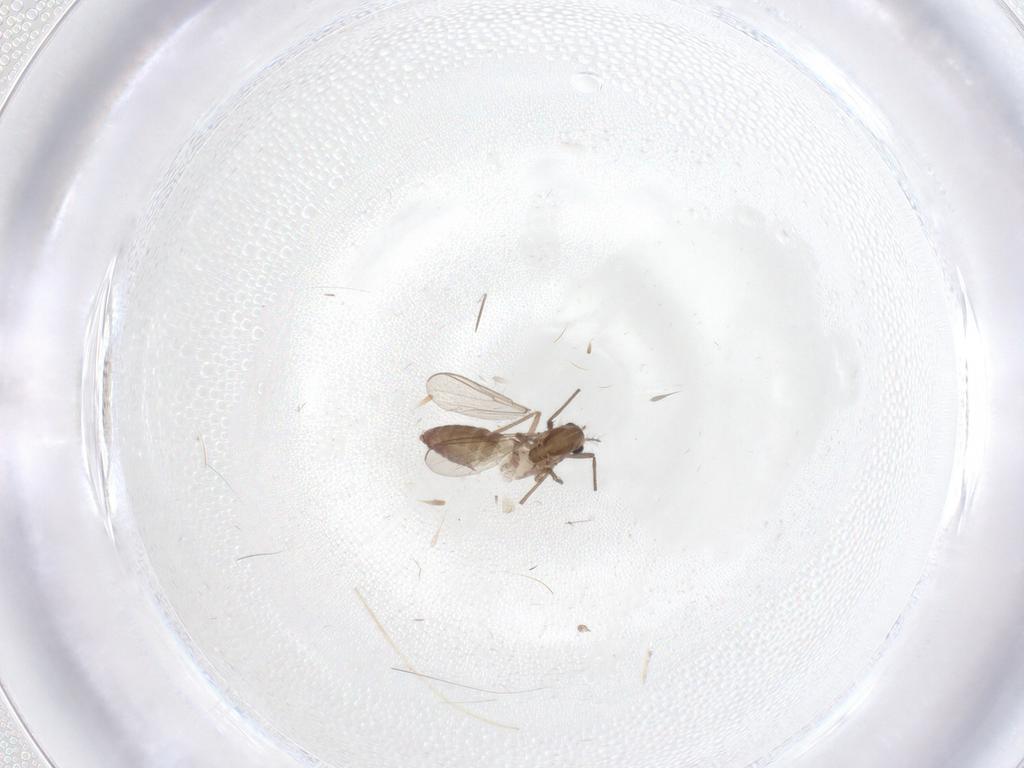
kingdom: Animalia
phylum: Arthropoda
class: Insecta
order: Diptera
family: Chironomidae
